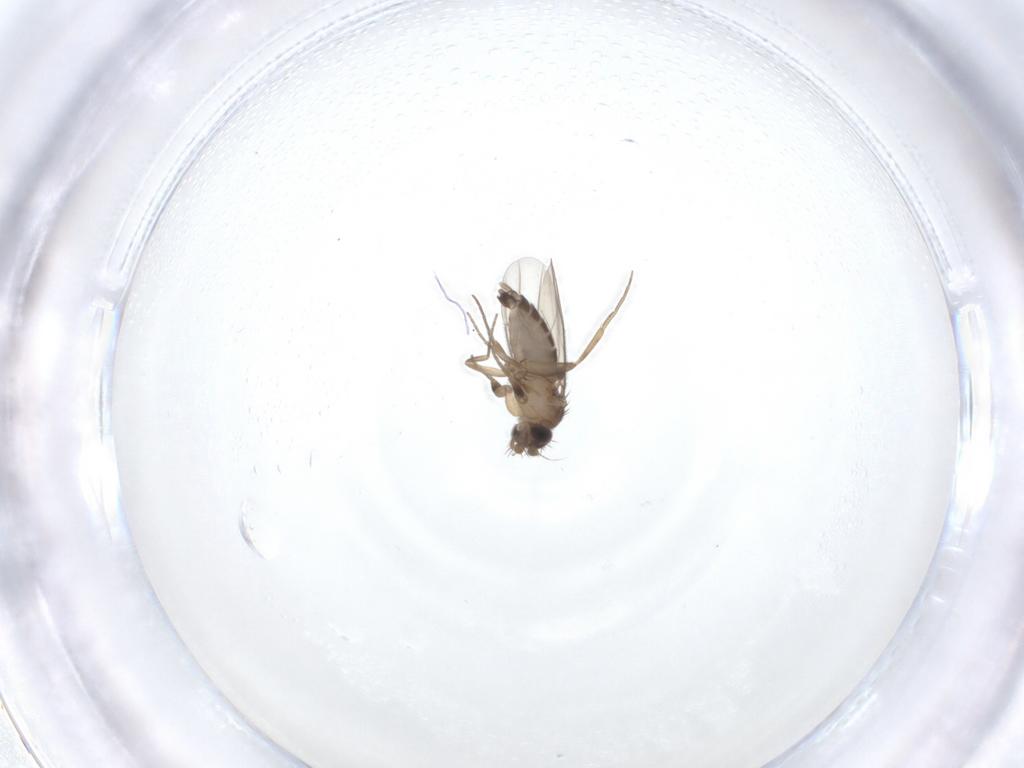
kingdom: Animalia
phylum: Arthropoda
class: Insecta
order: Diptera
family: Phoridae
